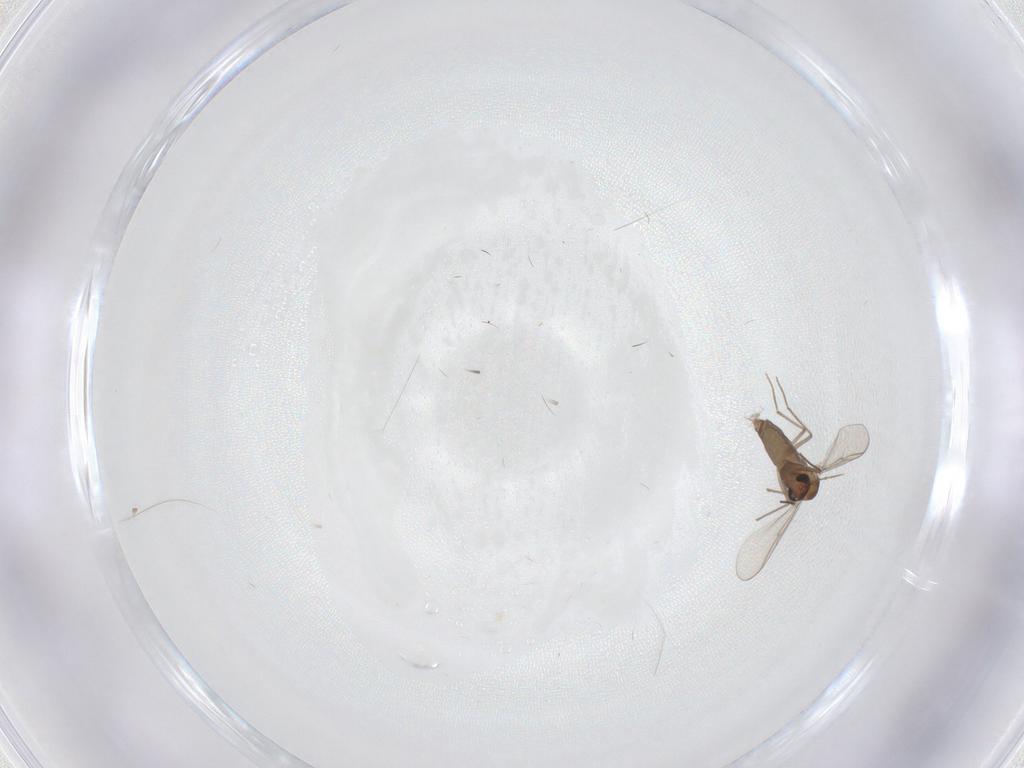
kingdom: Animalia
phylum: Arthropoda
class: Insecta
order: Diptera
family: Chironomidae
